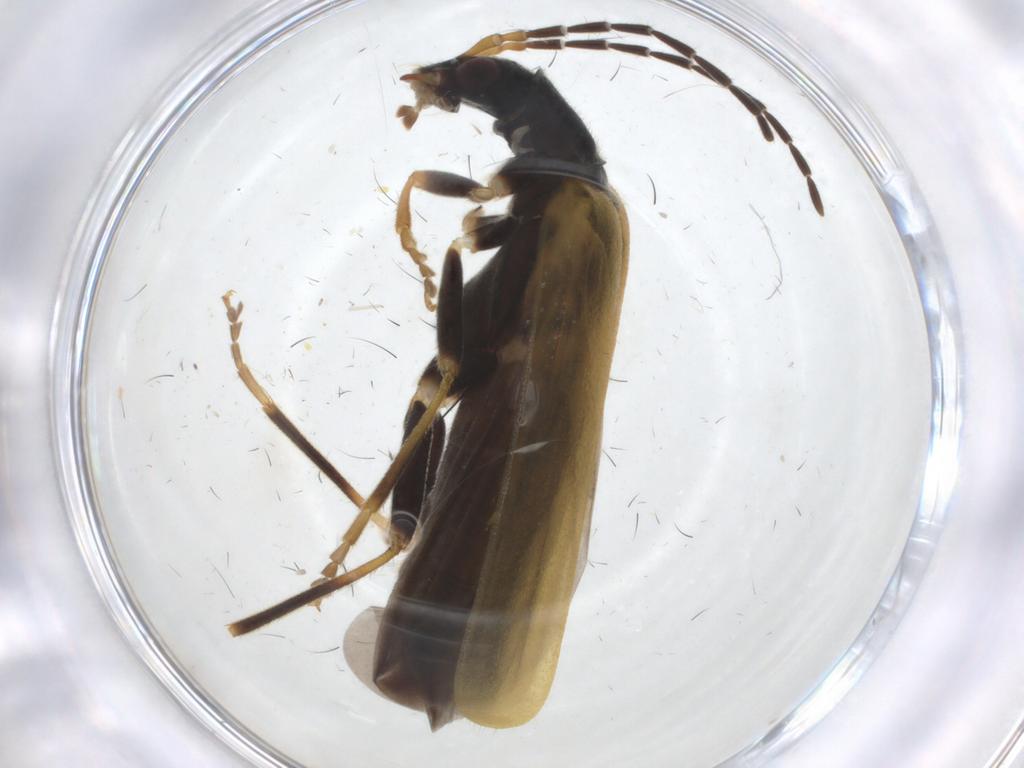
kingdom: Animalia
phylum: Arthropoda
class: Insecta
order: Coleoptera
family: Cantharidae
